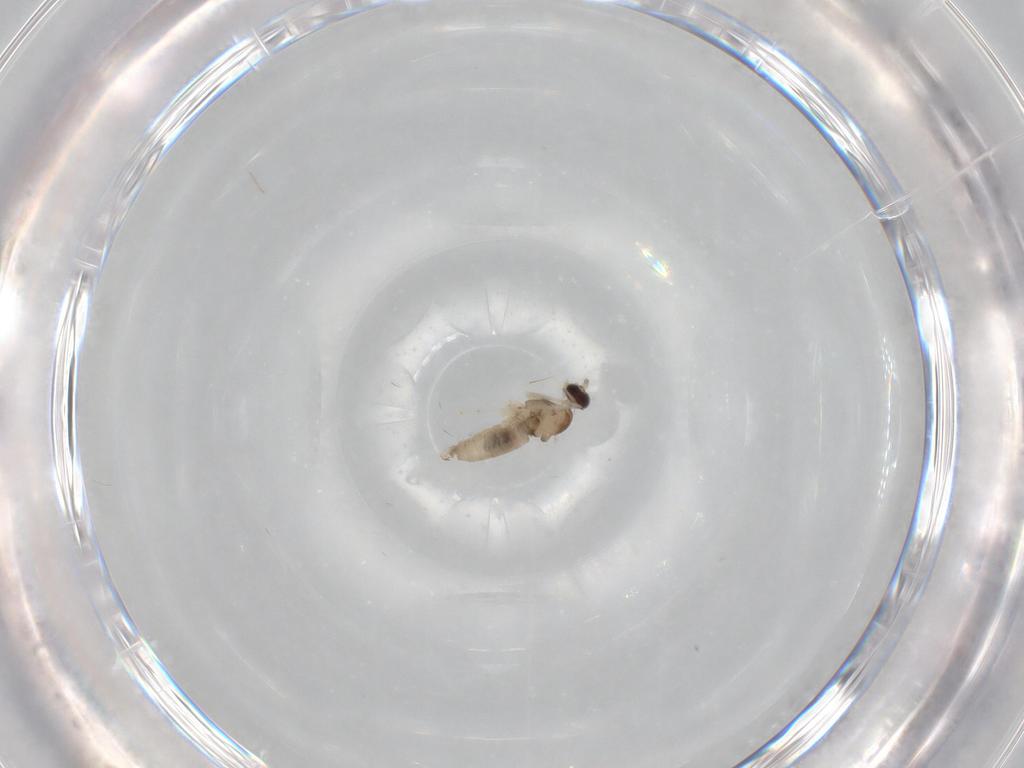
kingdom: Animalia
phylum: Arthropoda
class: Insecta
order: Diptera
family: Cecidomyiidae
